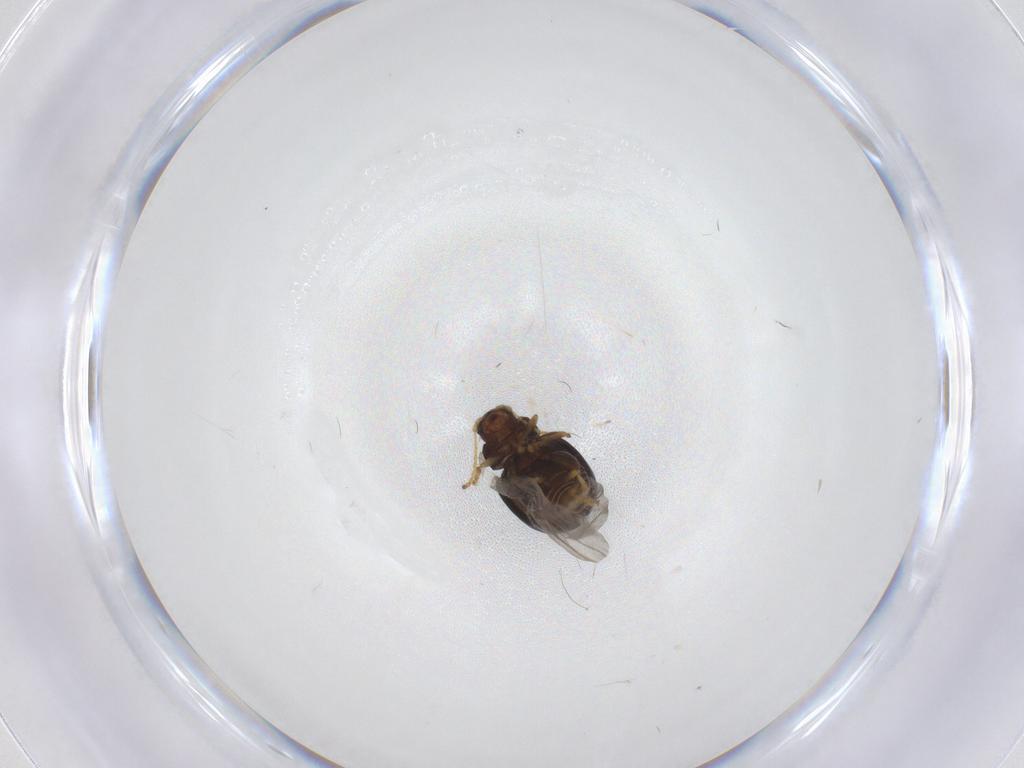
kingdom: Animalia
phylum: Arthropoda
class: Insecta
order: Coleoptera
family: Chrysomelidae
